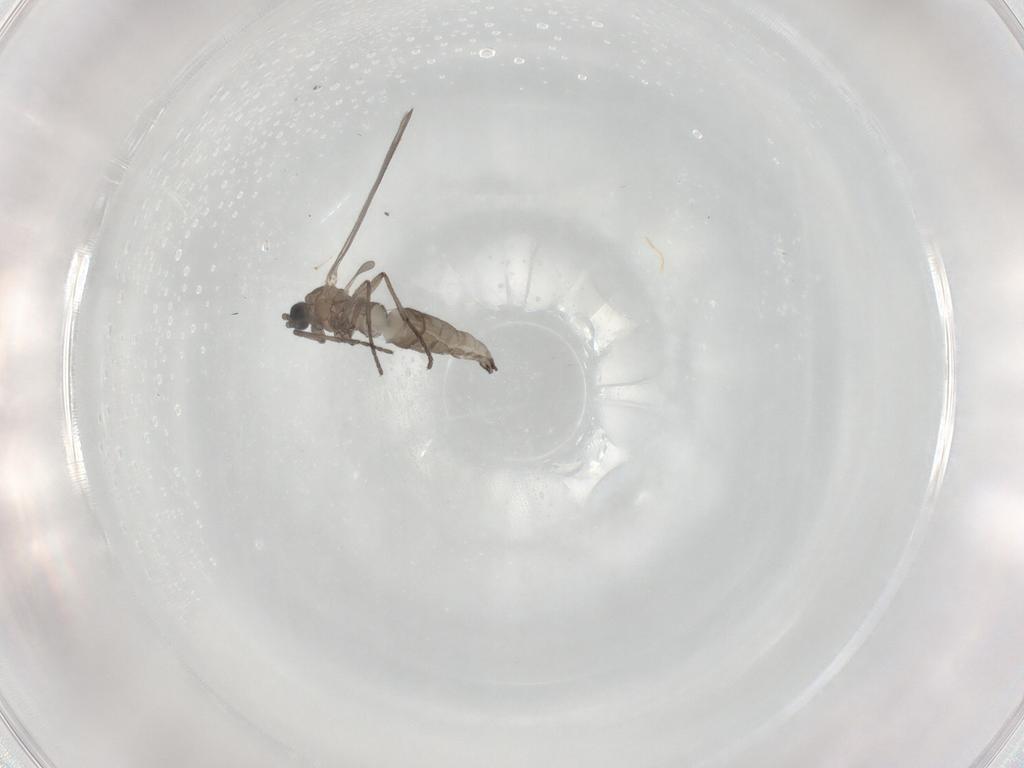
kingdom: Animalia
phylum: Arthropoda
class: Insecta
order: Diptera
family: Sciaridae
